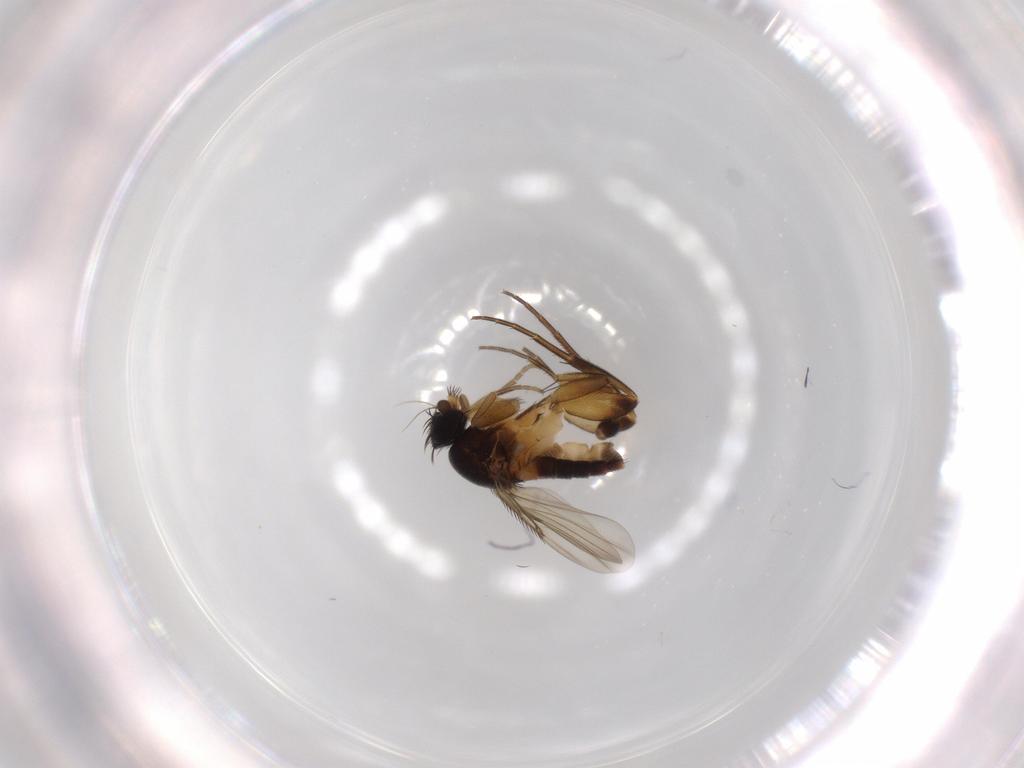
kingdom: Animalia
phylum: Arthropoda
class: Insecta
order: Diptera
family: Phoridae
